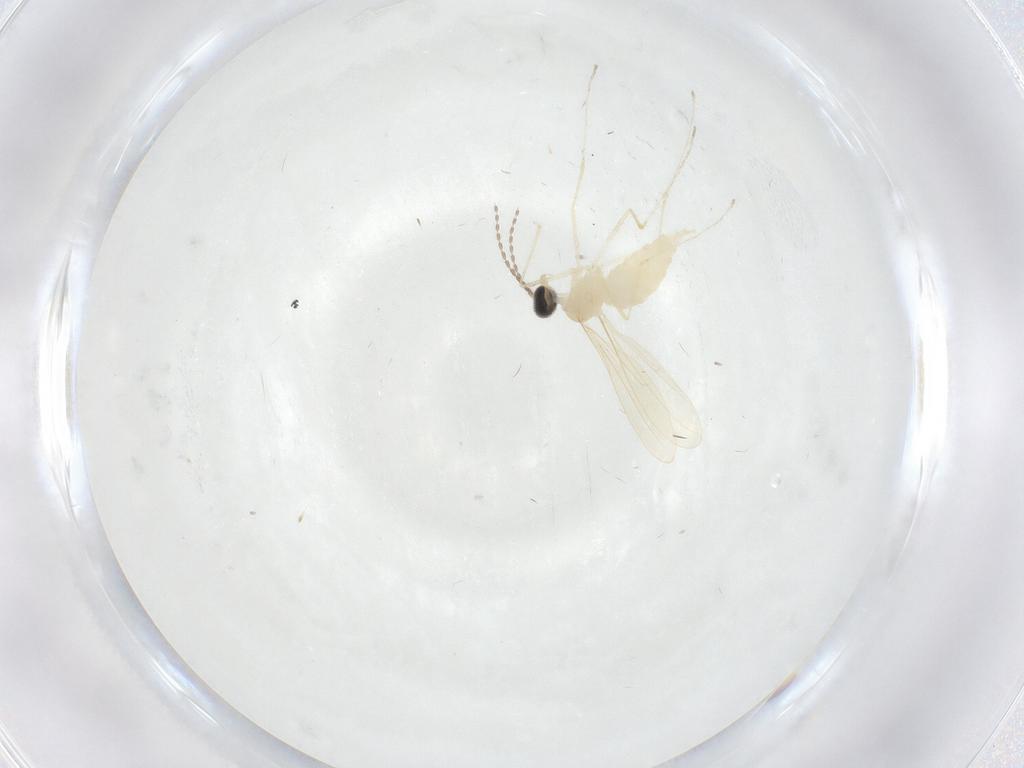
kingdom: Animalia
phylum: Arthropoda
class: Insecta
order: Diptera
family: Cecidomyiidae
